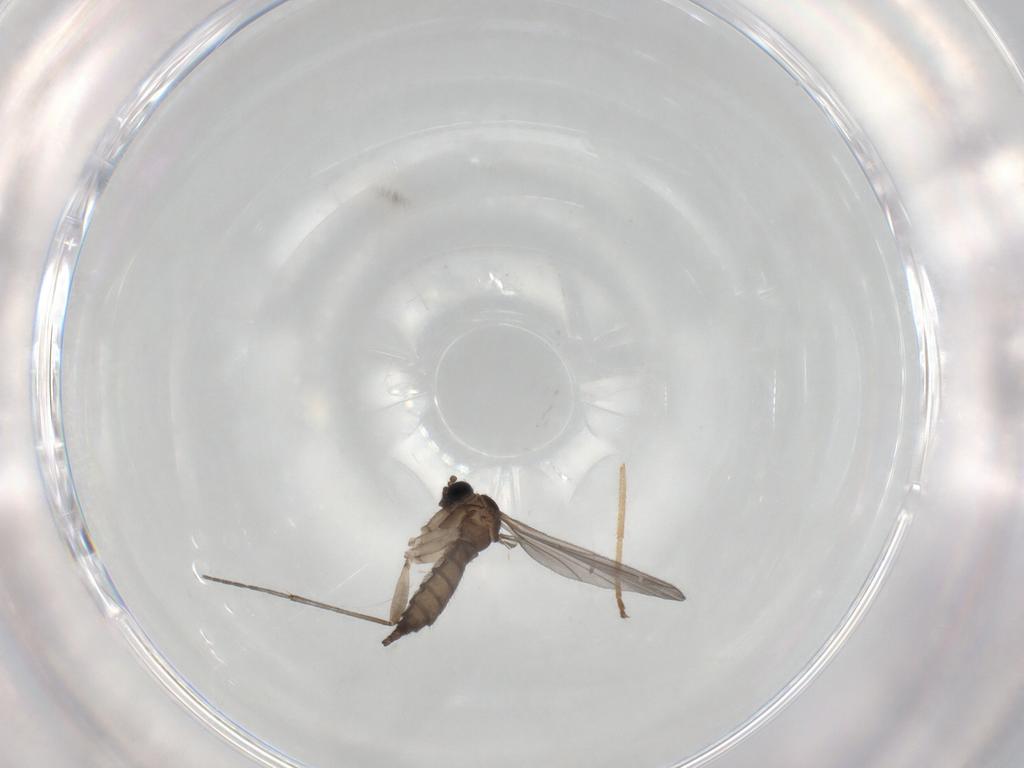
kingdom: Animalia
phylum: Arthropoda
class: Insecta
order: Diptera
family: Sciaridae
